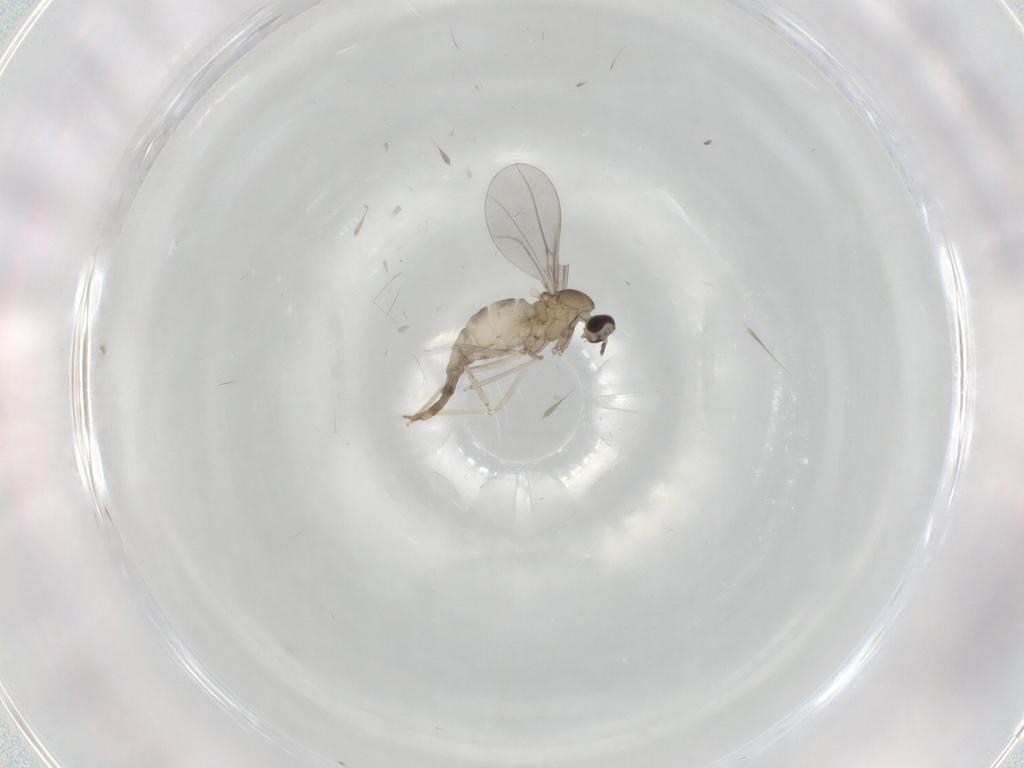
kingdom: Animalia
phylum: Arthropoda
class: Insecta
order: Diptera
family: Cecidomyiidae
